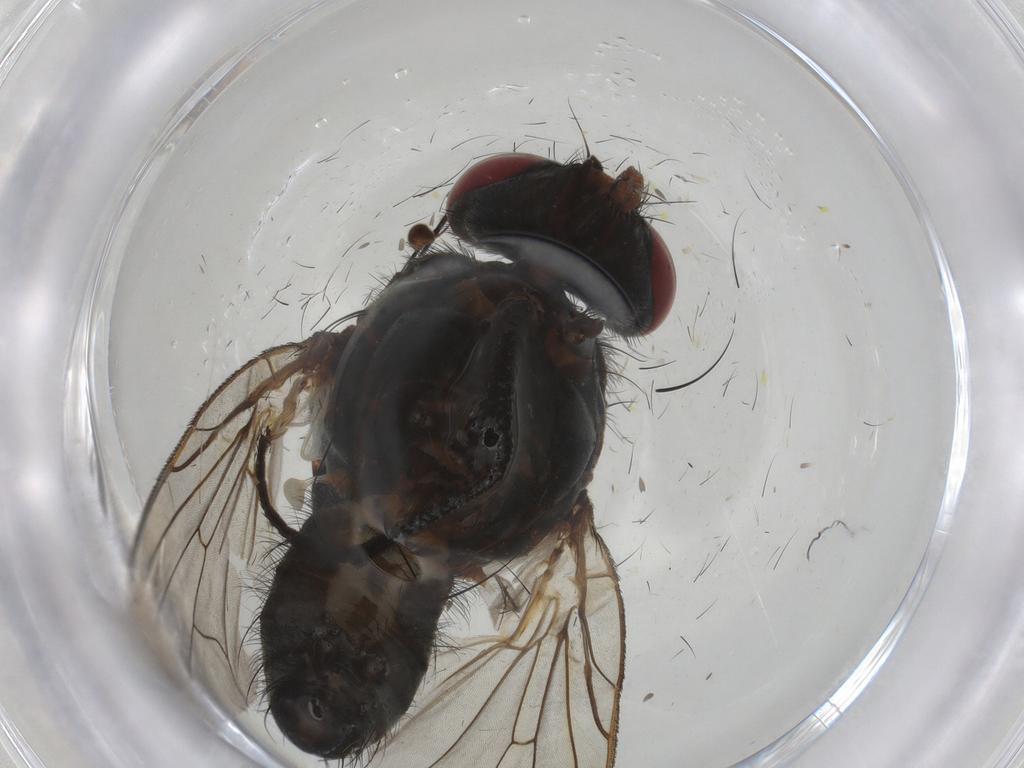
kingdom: Animalia
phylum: Arthropoda
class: Insecta
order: Diptera
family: Anthomyiidae
